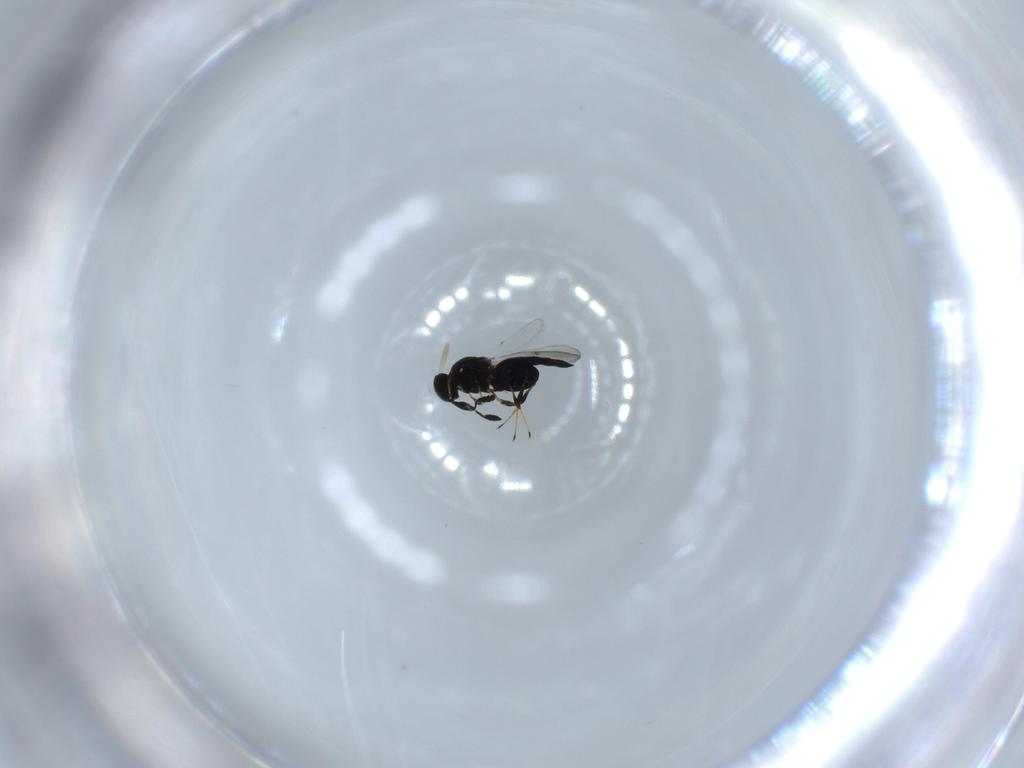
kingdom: Animalia
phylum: Arthropoda
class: Insecta
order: Hymenoptera
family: Platygastridae
